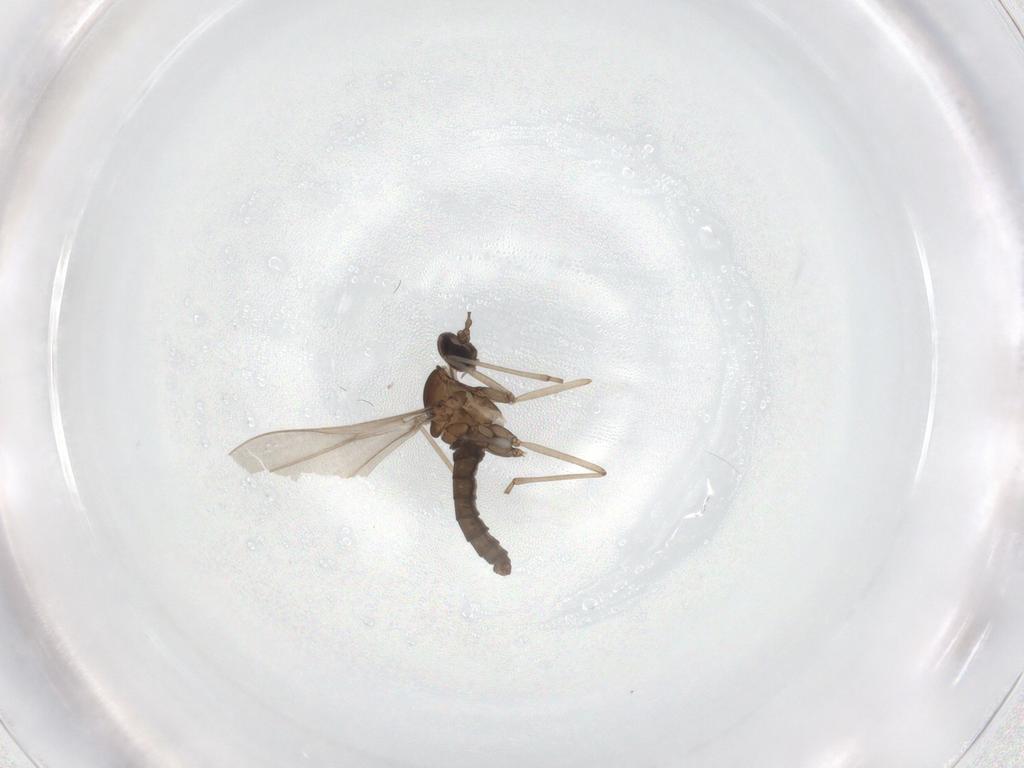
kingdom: Animalia
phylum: Arthropoda
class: Insecta
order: Diptera
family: Cecidomyiidae
